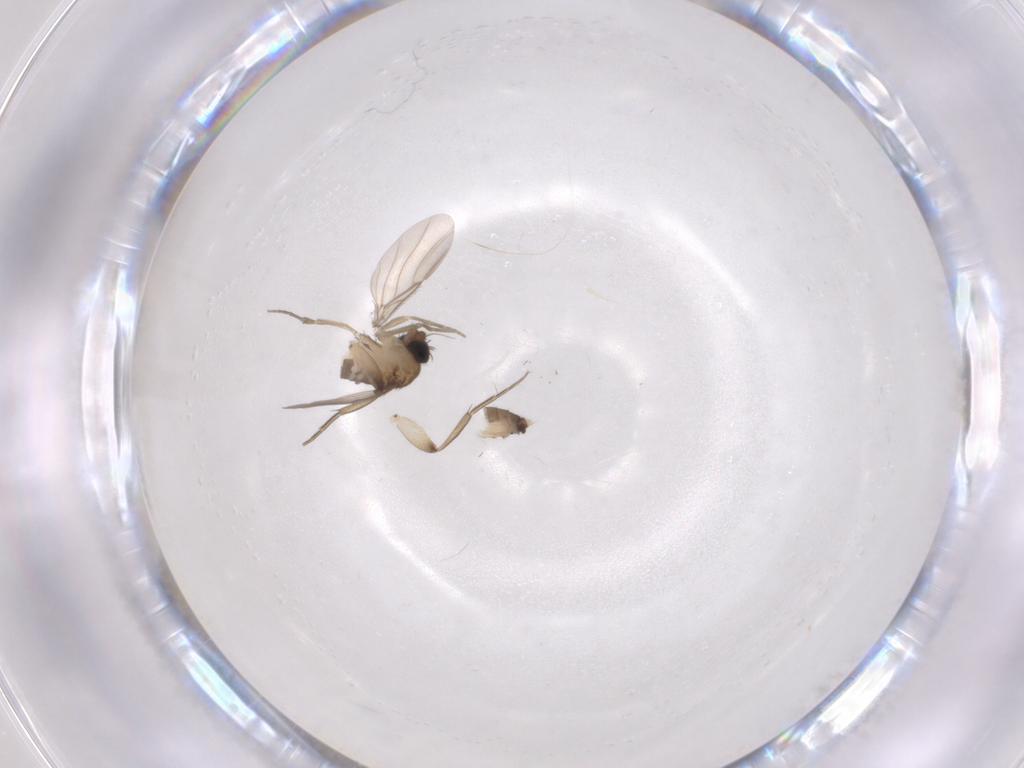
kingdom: Animalia
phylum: Arthropoda
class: Insecta
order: Diptera
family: Phoridae
